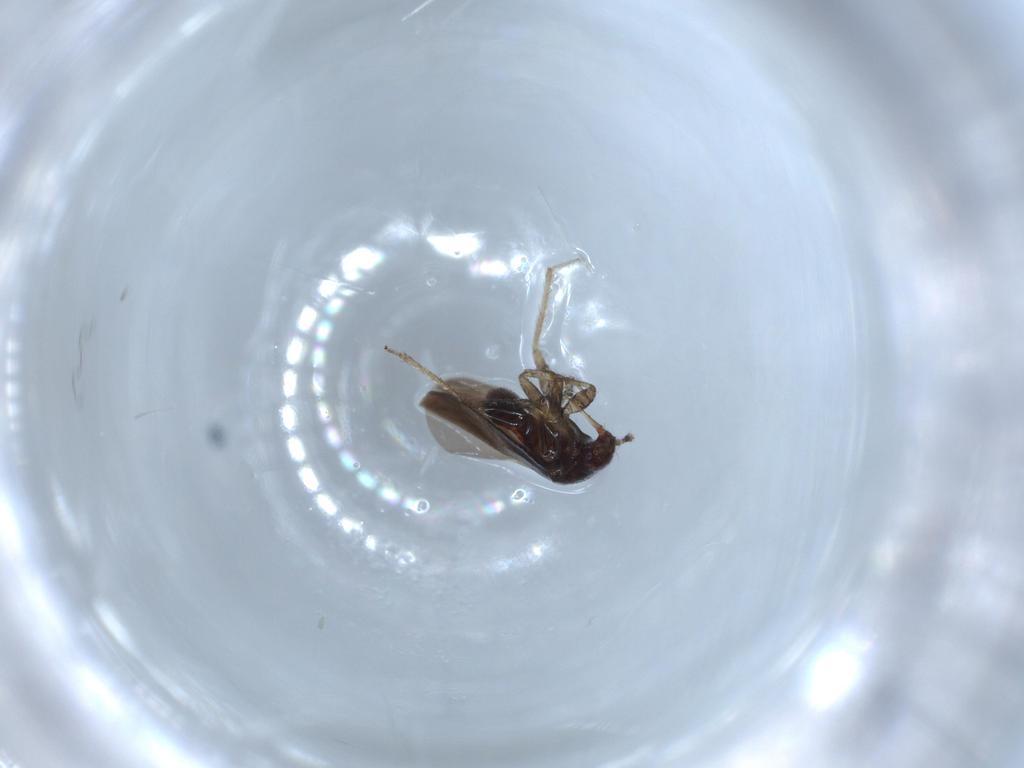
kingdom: Animalia
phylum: Arthropoda
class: Insecta
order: Hemiptera
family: Ceratocombidae
